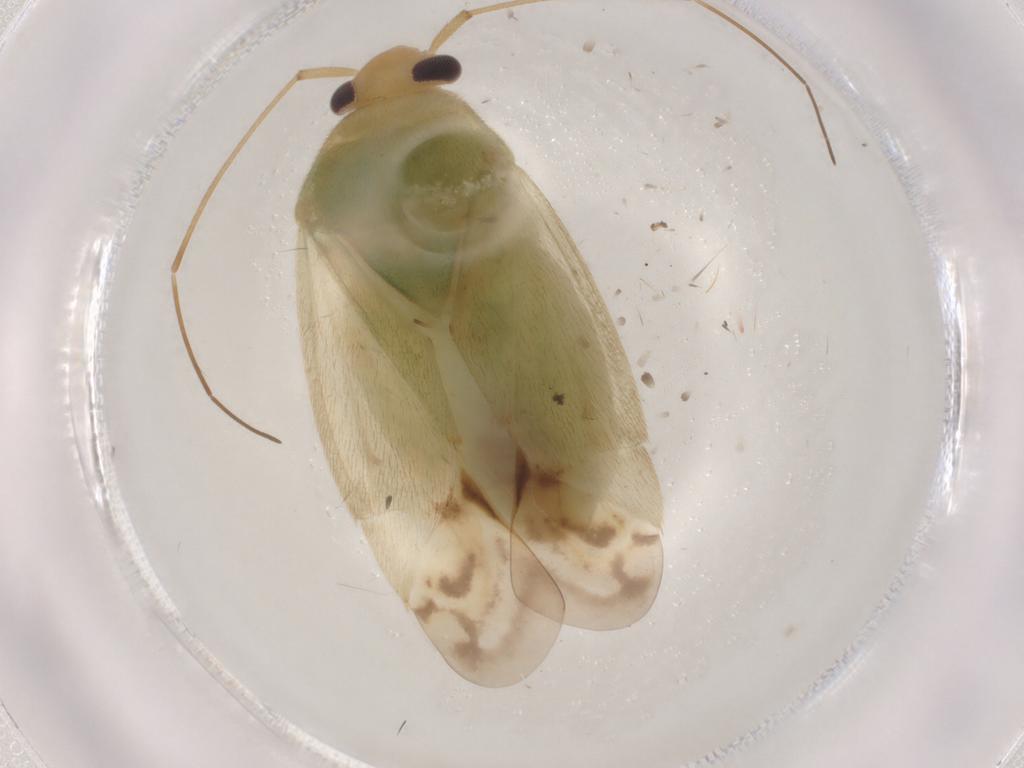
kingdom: Animalia
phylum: Arthropoda
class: Insecta
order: Hemiptera
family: Miridae
